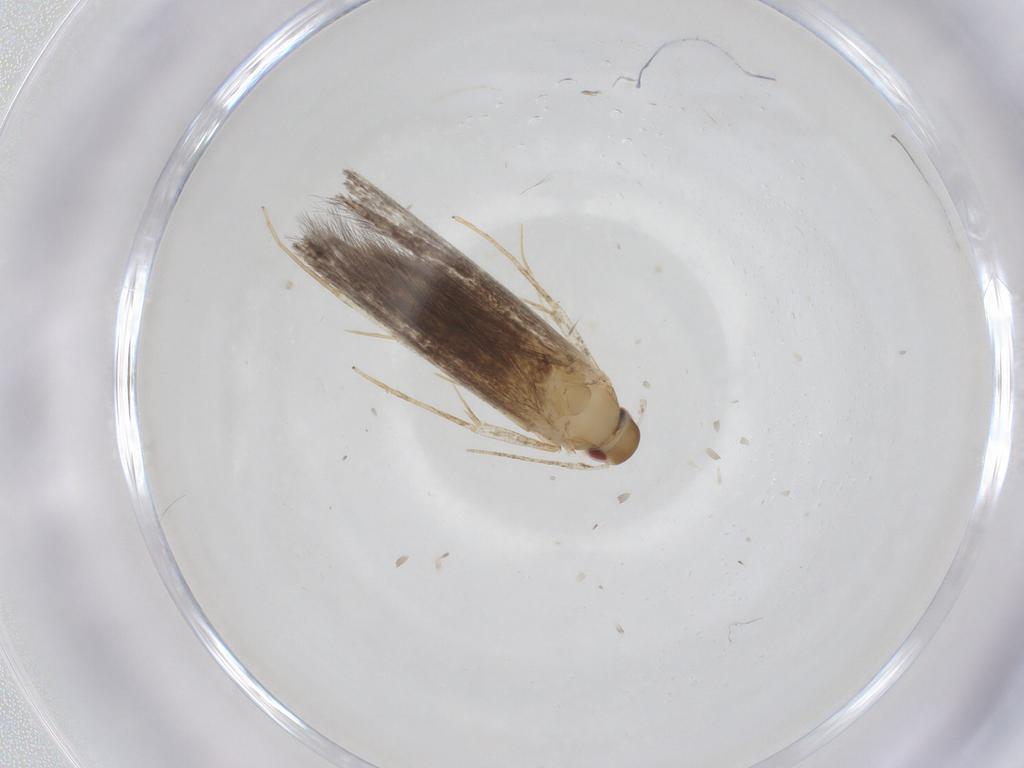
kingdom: Animalia
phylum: Arthropoda
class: Insecta
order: Lepidoptera
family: Cosmopterigidae
